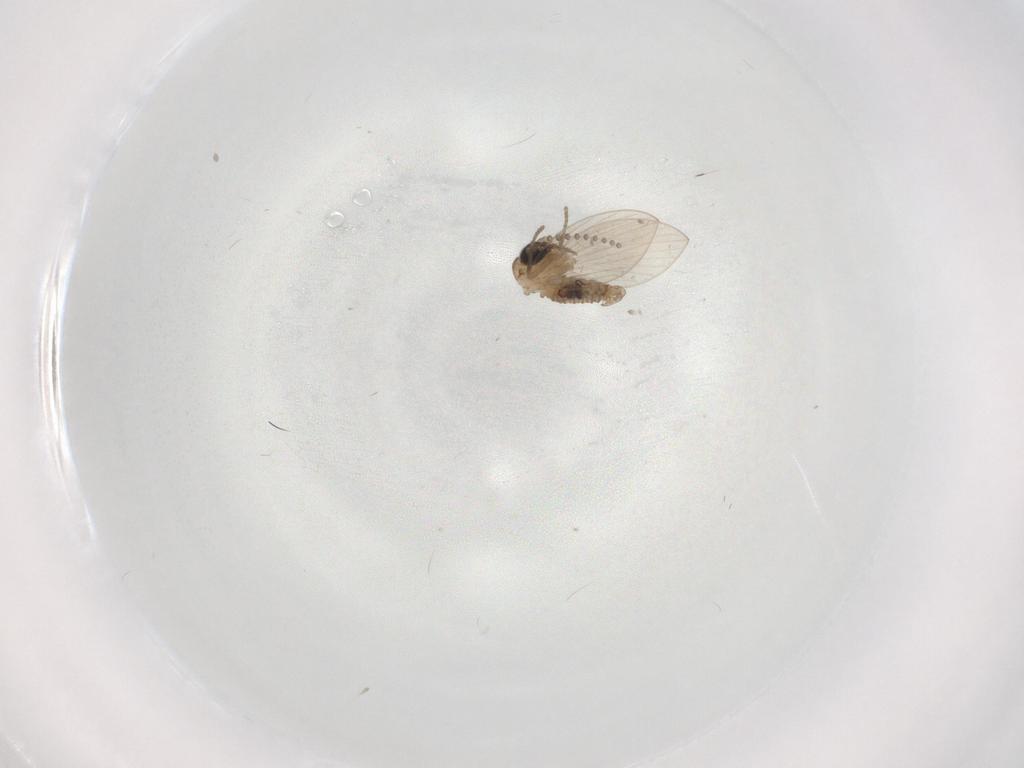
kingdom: Animalia
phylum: Arthropoda
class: Insecta
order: Diptera
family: Psychodidae
